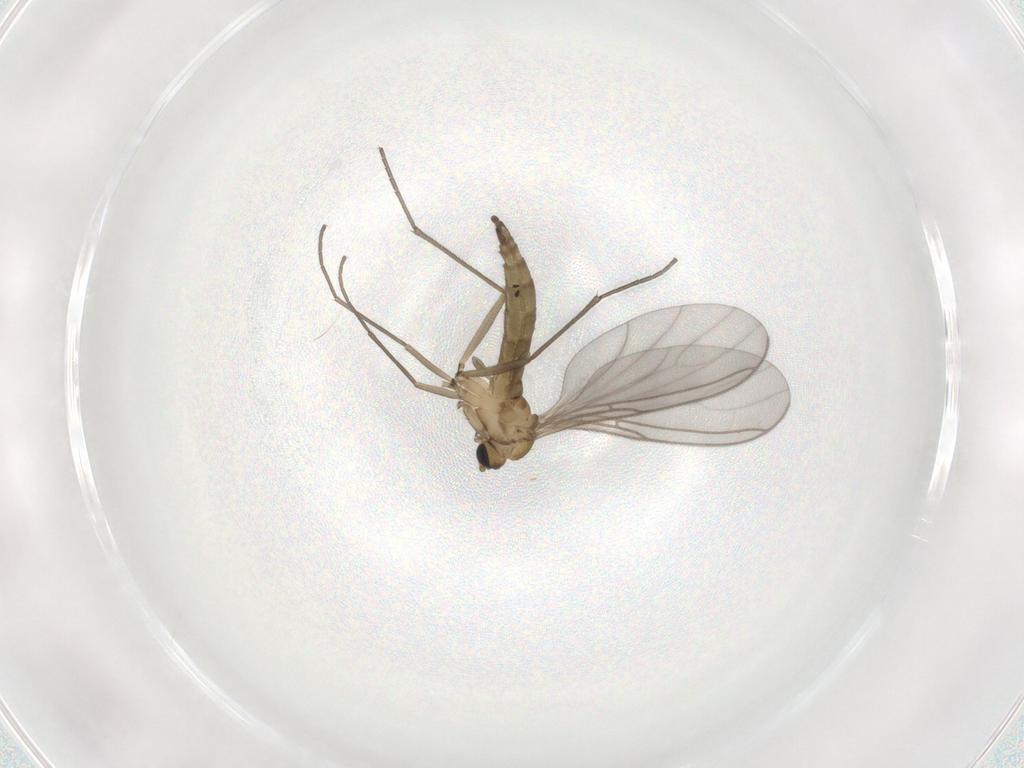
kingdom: Animalia
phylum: Arthropoda
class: Insecta
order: Diptera
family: Sciaridae
